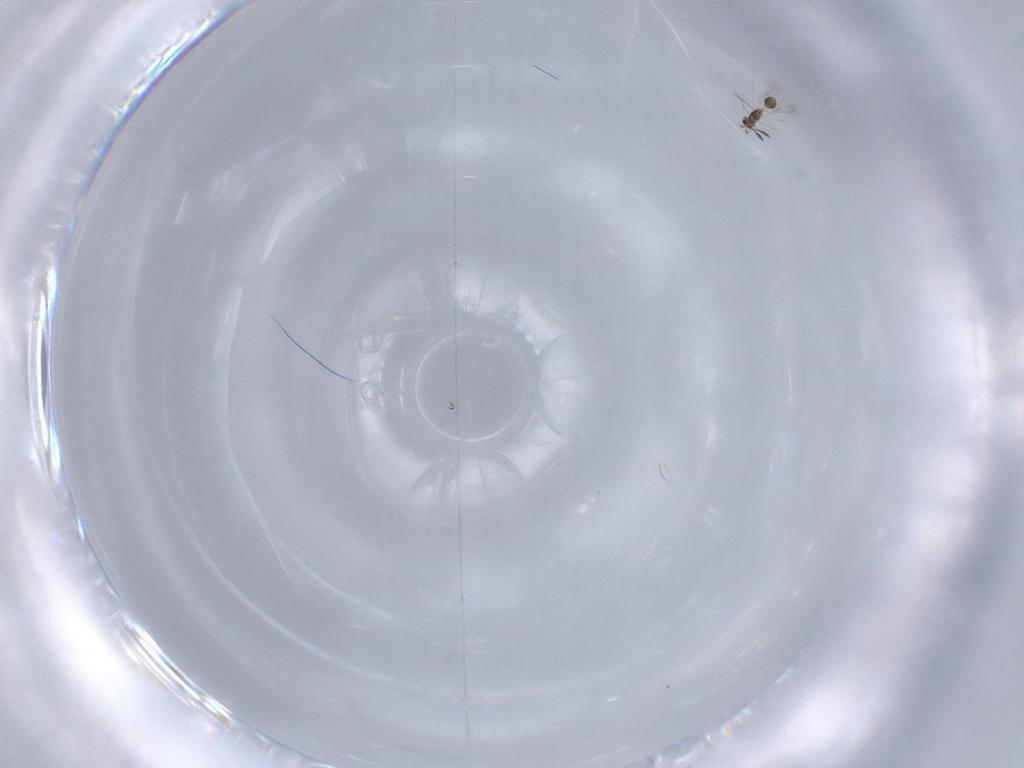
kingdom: Animalia
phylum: Arthropoda
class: Insecta
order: Hymenoptera
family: Mymarommatidae
